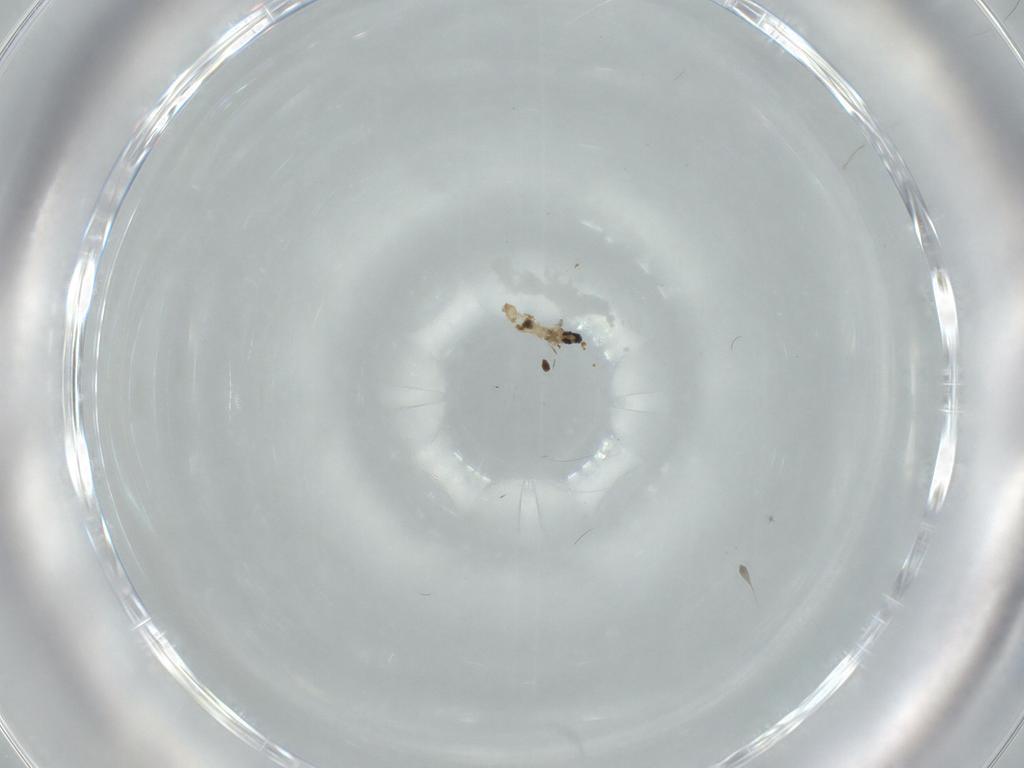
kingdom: Animalia
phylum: Arthropoda
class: Insecta
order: Diptera
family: Cecidomyiidae
